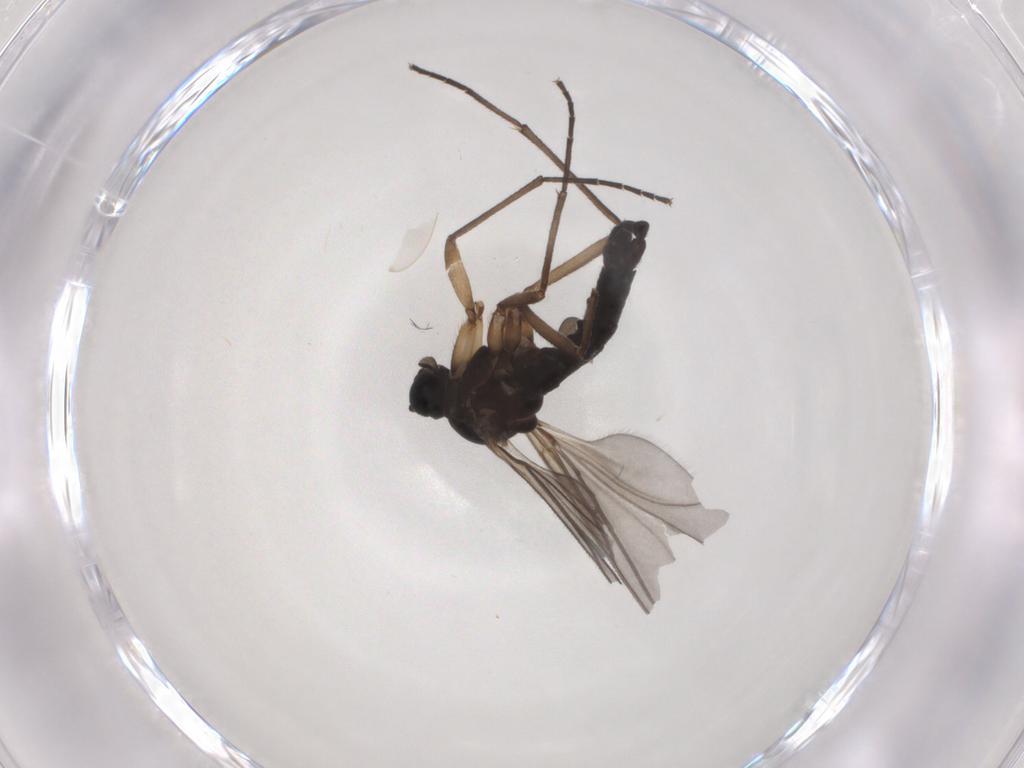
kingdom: Animalia
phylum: Arthropoda
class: Insecta
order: Diptera
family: Sciaridae
